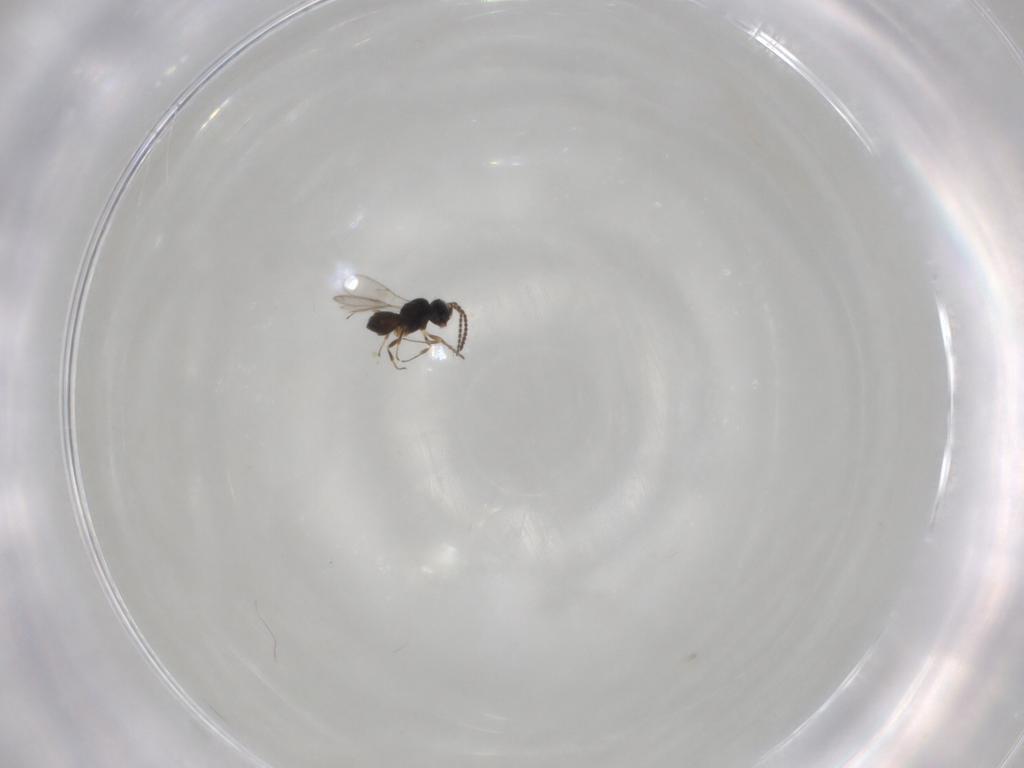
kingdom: Animalia
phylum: Arthropoda
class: Insecta
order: Hymenoptera
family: Scelionidae
